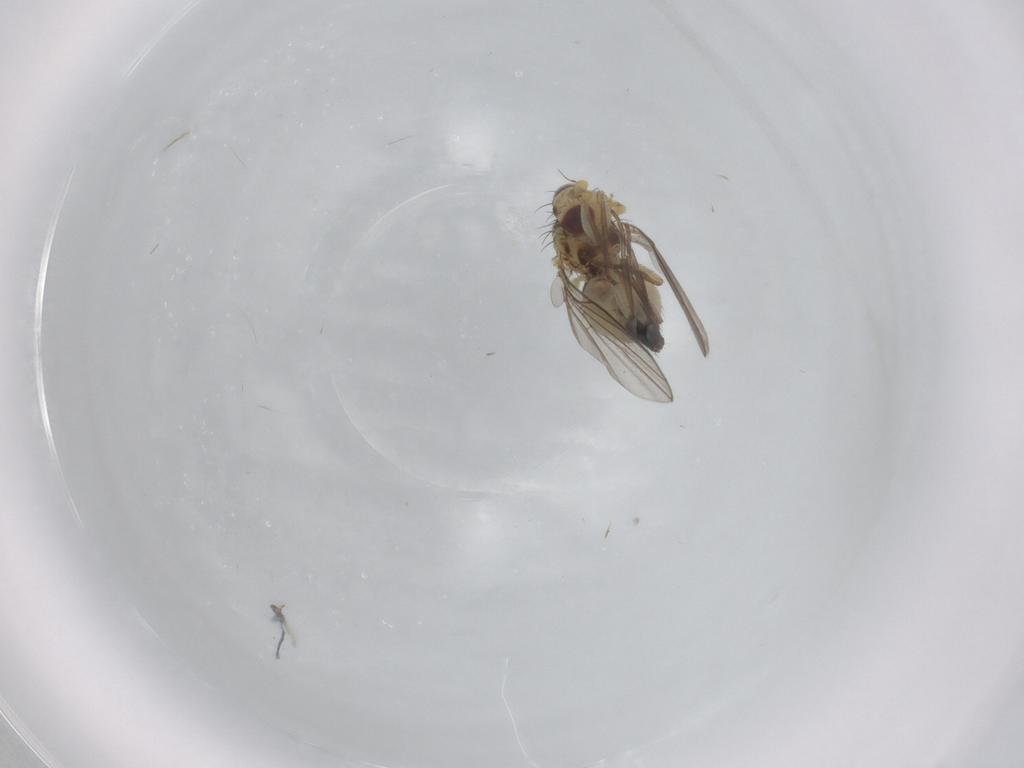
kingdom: Animalia
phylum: Arthropoda
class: Insecta
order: Diptera
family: Agromyzidae
